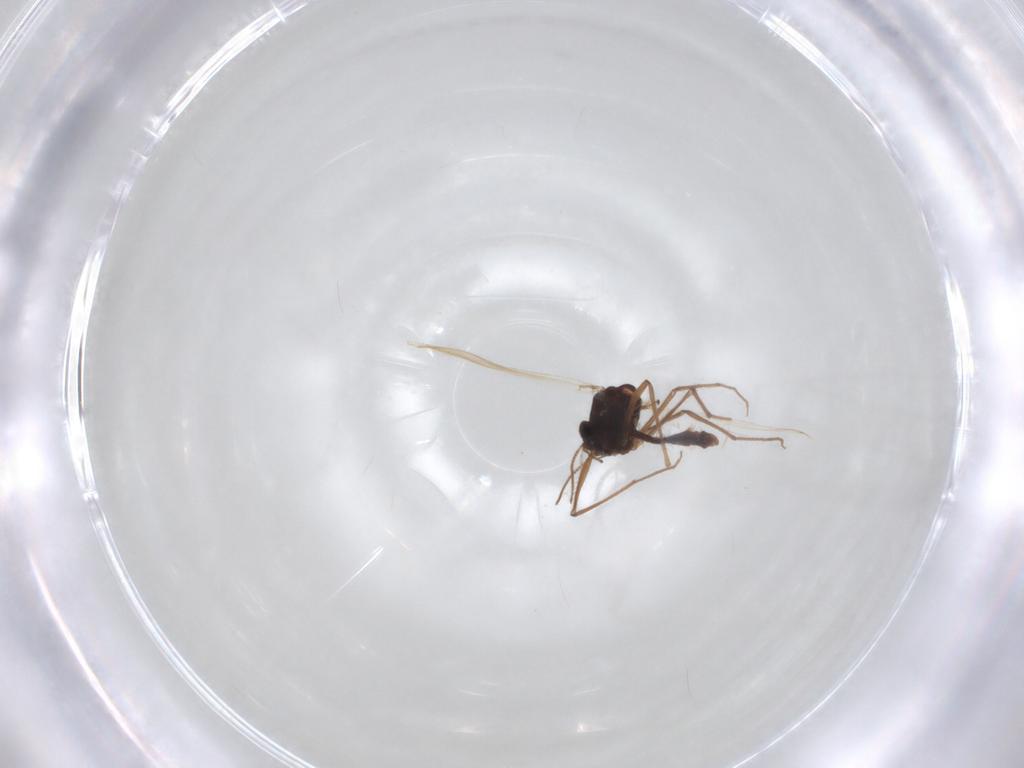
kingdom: Animalia
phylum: Arthropoda
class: Insecta
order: Diptera
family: Chironomidae
